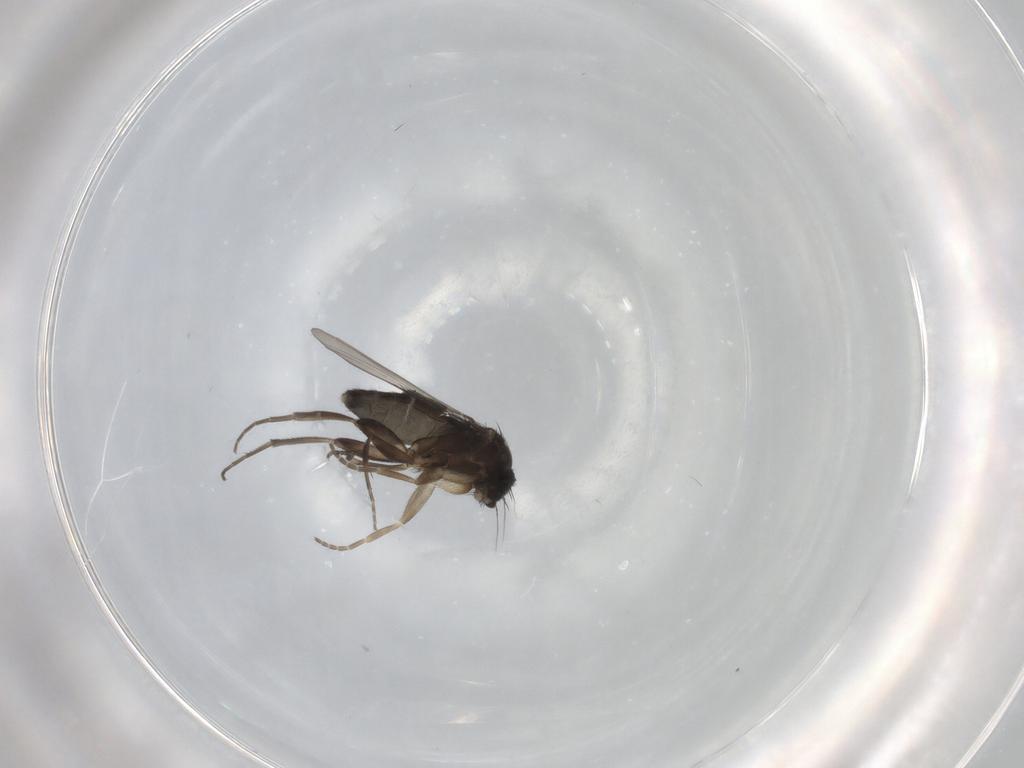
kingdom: Animalia
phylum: Arthropoda
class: Insecta
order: Diptera
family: Phoridae
